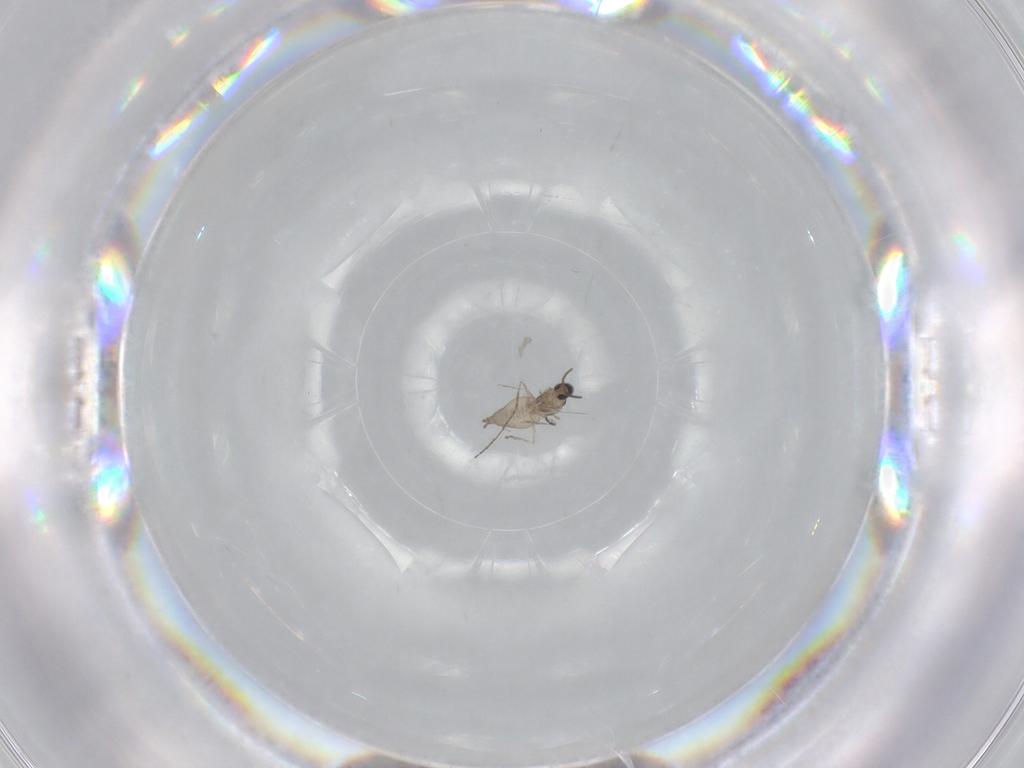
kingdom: Animalia
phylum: Arthropoda
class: Insecta
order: Diptera
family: Cecidomyiidae
